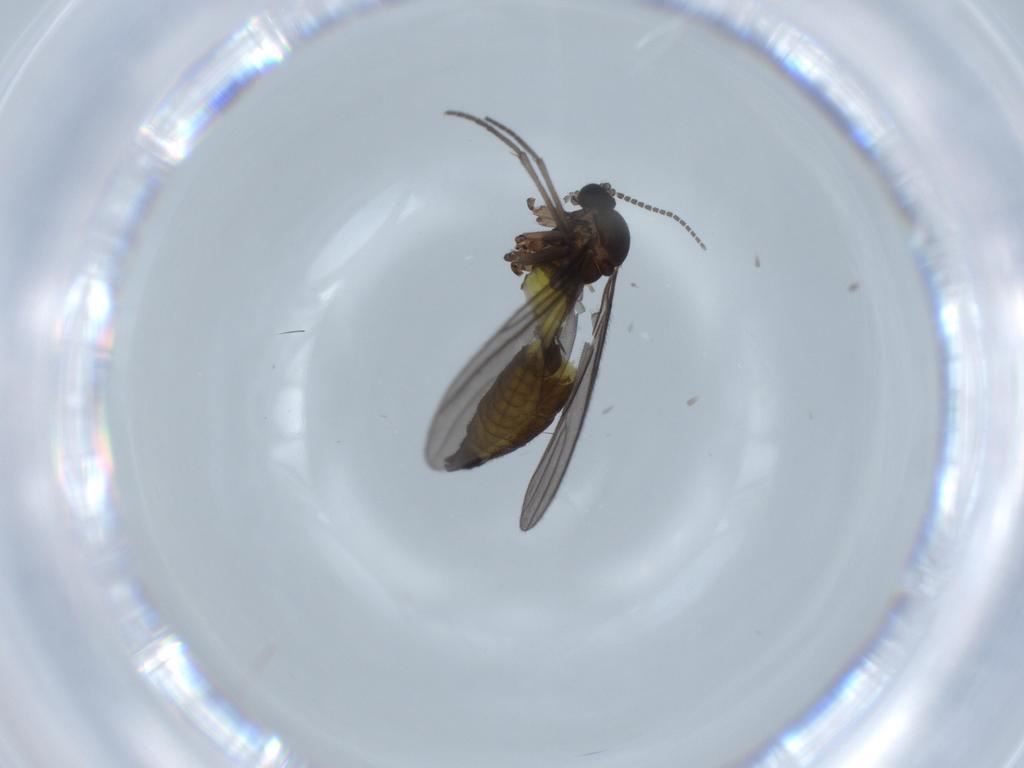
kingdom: Animalia
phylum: Arthropoda
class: Insecta
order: Diptera
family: Sciaridae
